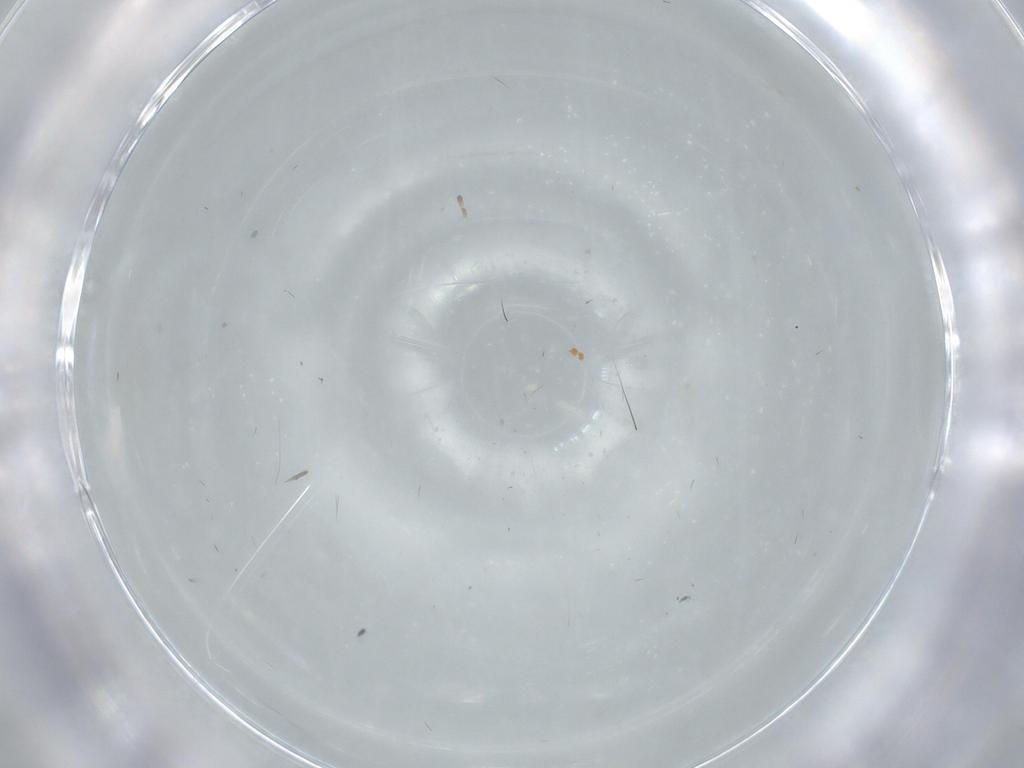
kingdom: Animalia
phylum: Arthropoda
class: Insecta
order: Psocodea
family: Caeciliusidae
